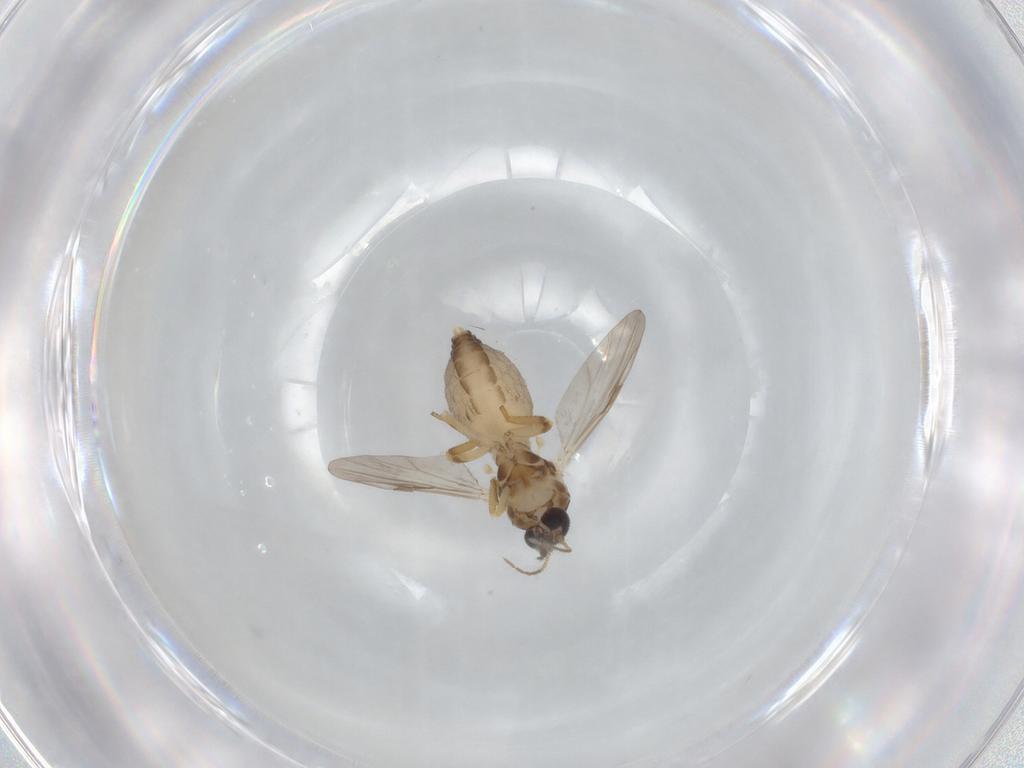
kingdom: Animalia
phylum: Arthropoda
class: Insecta
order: Diptera
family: Ceratopogonidae
